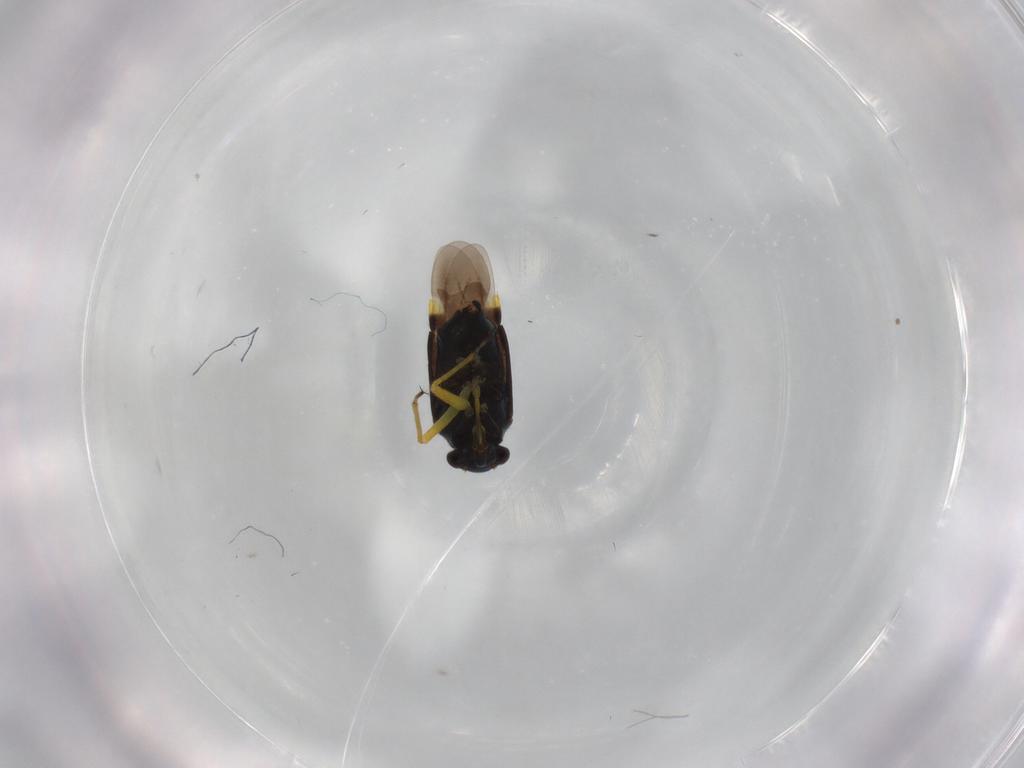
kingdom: Animalia
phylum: Arthropoda
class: Insecta
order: Hemiptera
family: Miridae
